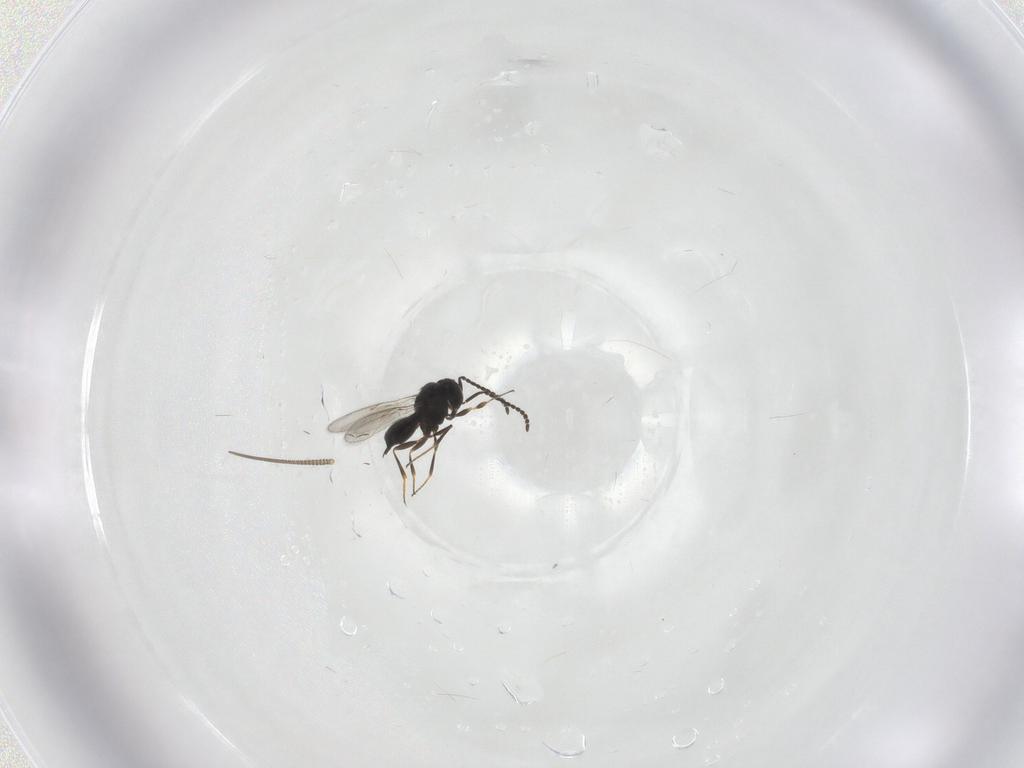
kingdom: Animalia
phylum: Arthropoda
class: Insecta
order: Hymenoptera
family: Scelionidae
